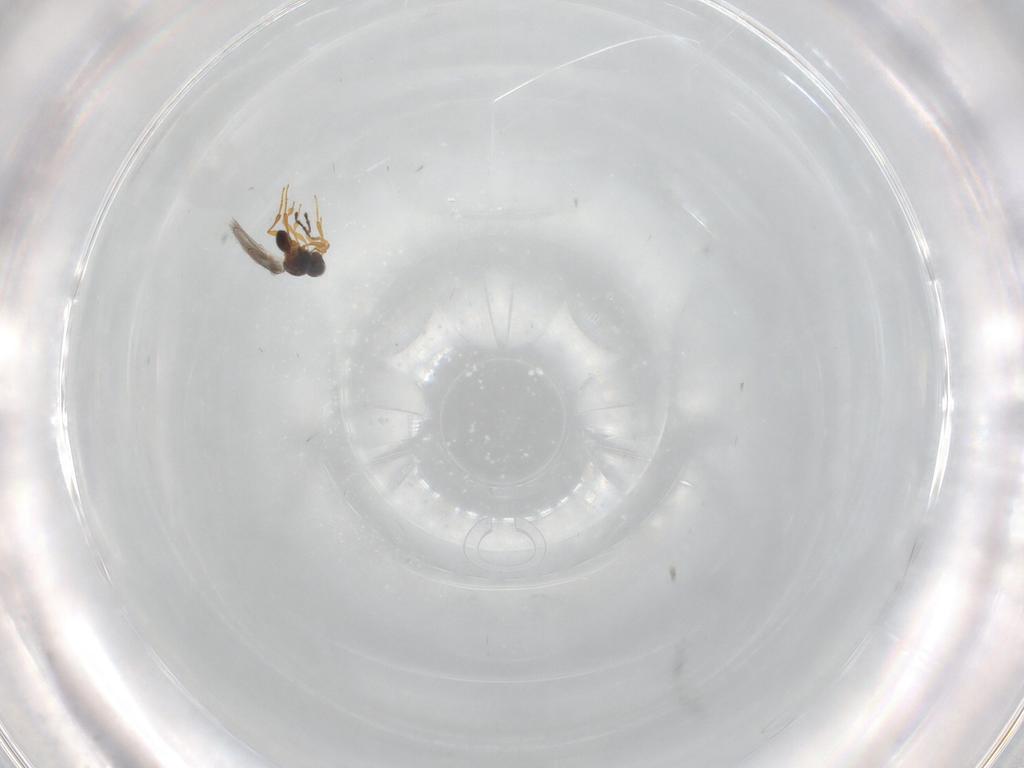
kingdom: Animalia
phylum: Arthropoda
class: Insecta
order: Hymenoptera
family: Platygastridae
